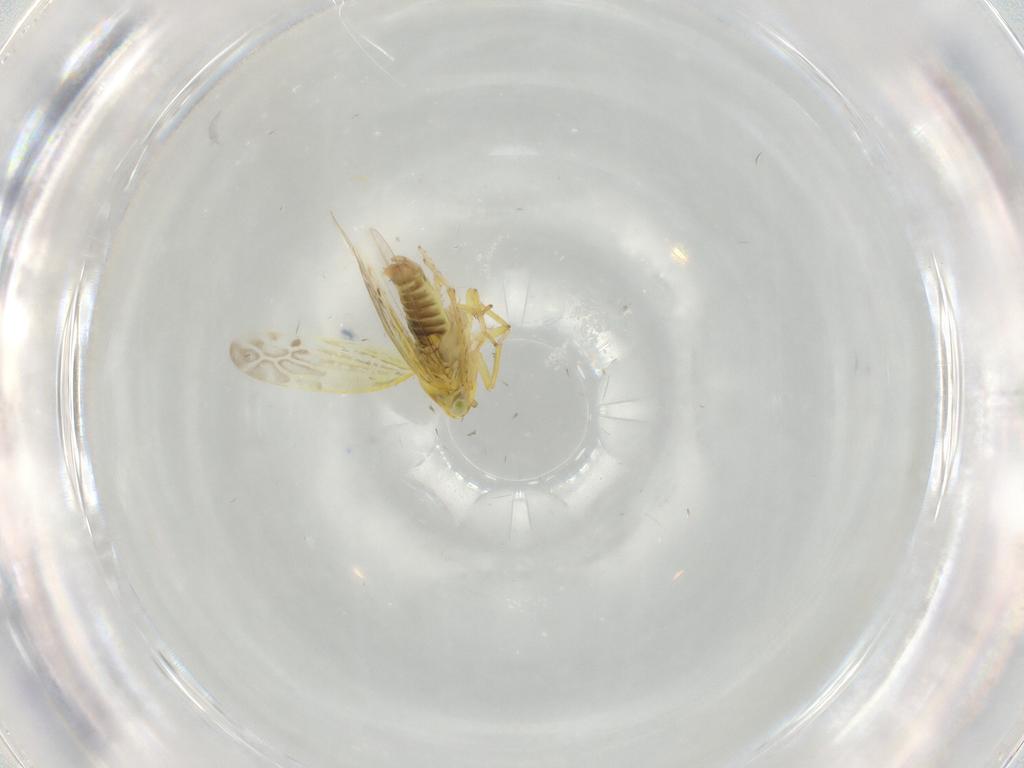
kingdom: Animalia
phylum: Arthropoda
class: Insecta
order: Hemiptera
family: Cicadellidae
